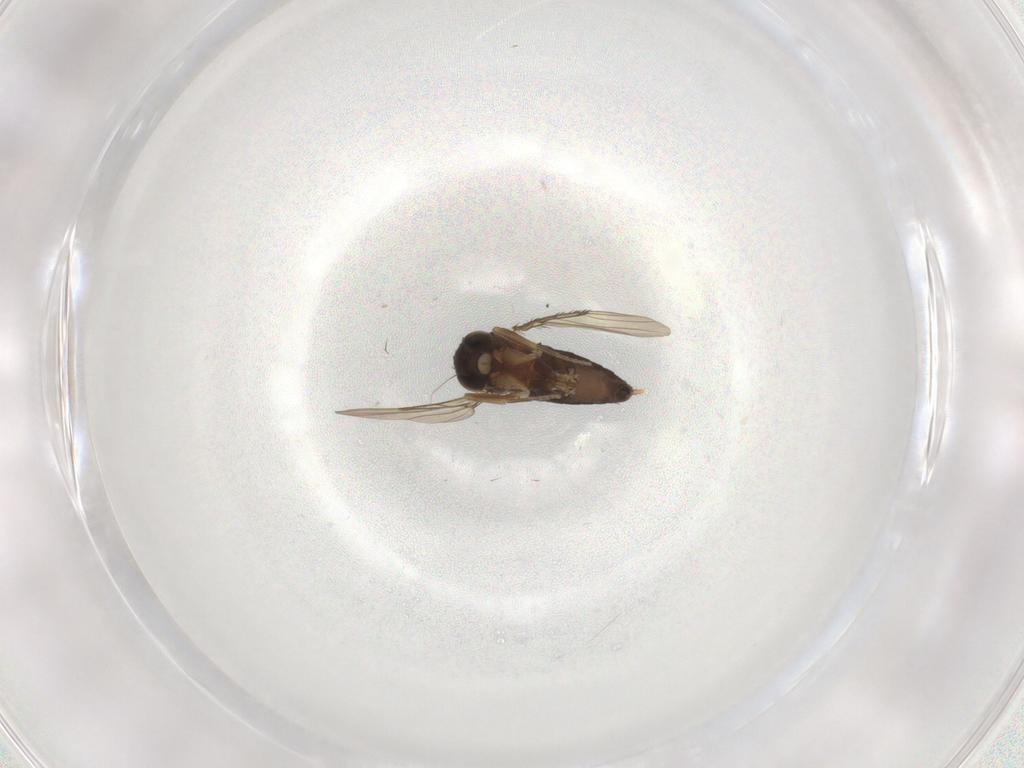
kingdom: Animalia
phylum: Arthropoda
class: Insecta
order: Diptera
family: Phoridae
